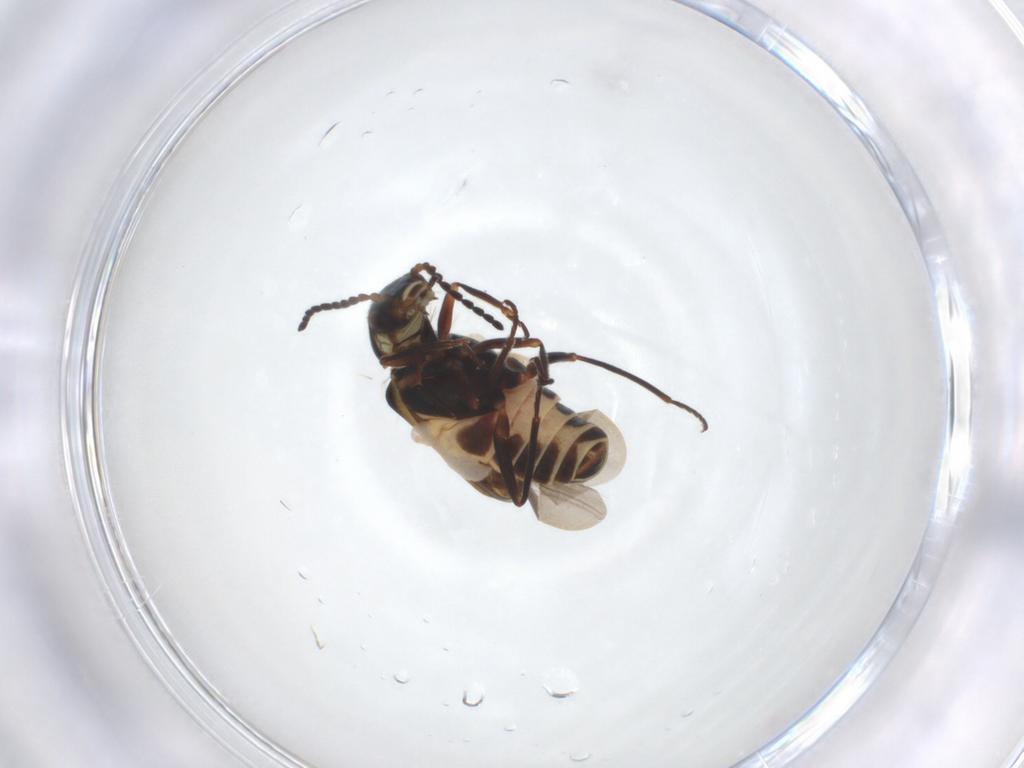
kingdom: Animalia
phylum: Arthropoda
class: Insecta
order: Coleoptera
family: Melyridae
